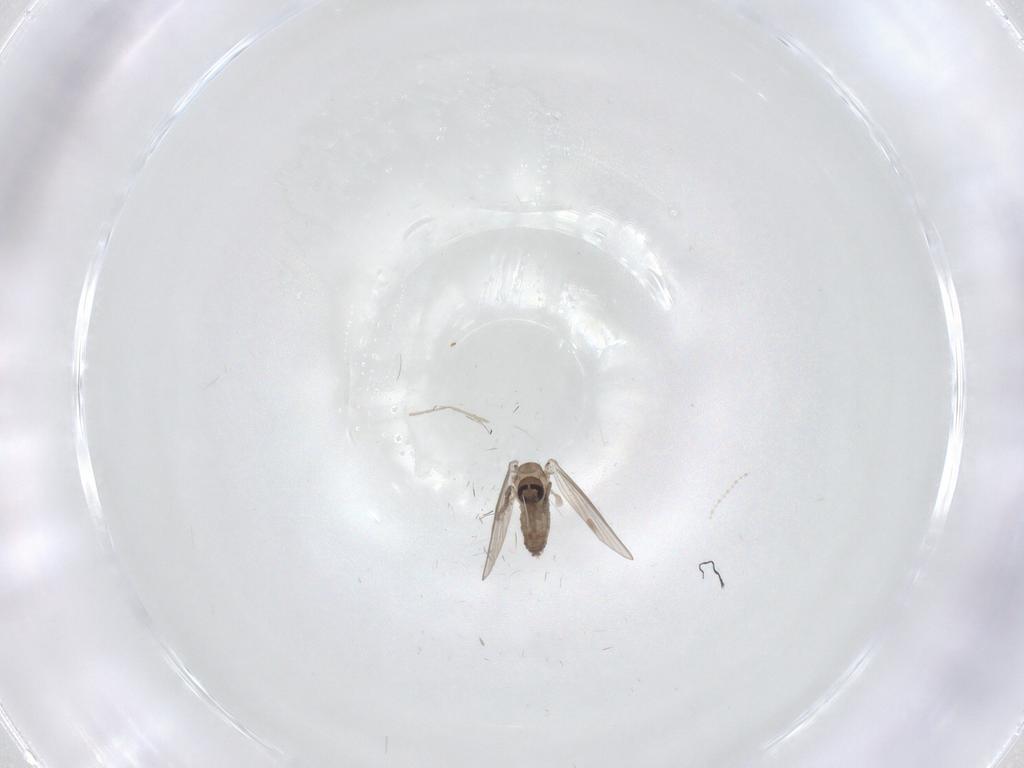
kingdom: Animalia
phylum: Arthropoda
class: Insecta
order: Diptera
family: Psychodidae
